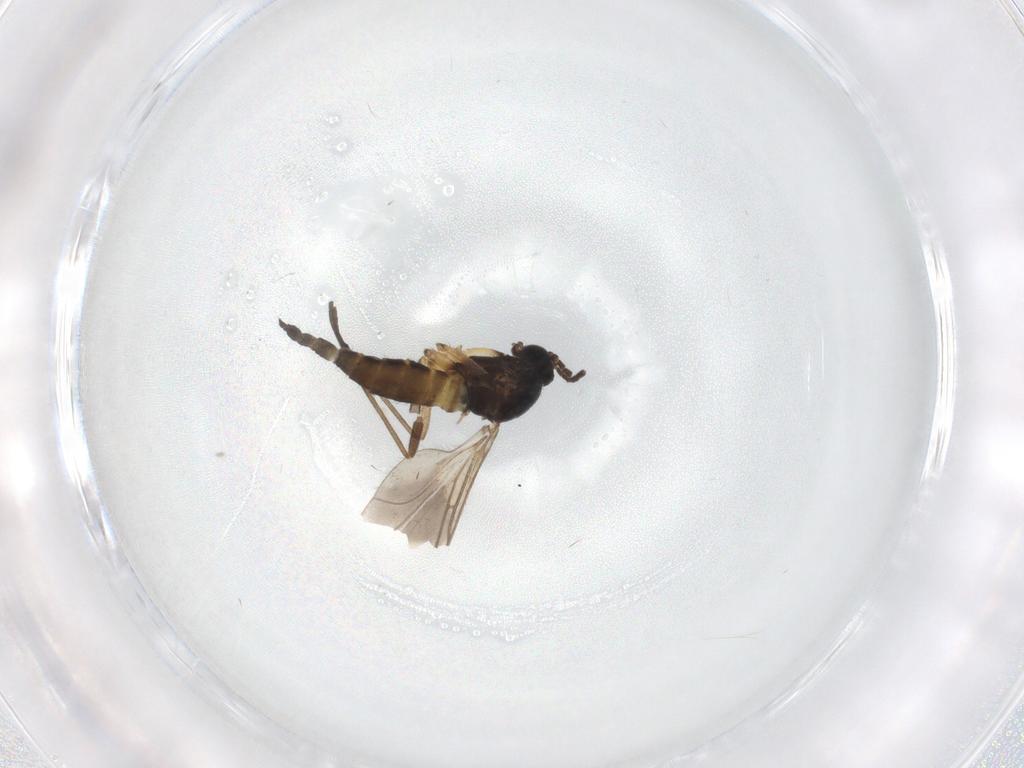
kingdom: Animalia
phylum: Arthropoda
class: Insecta
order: Diptera
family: Sciaridae
